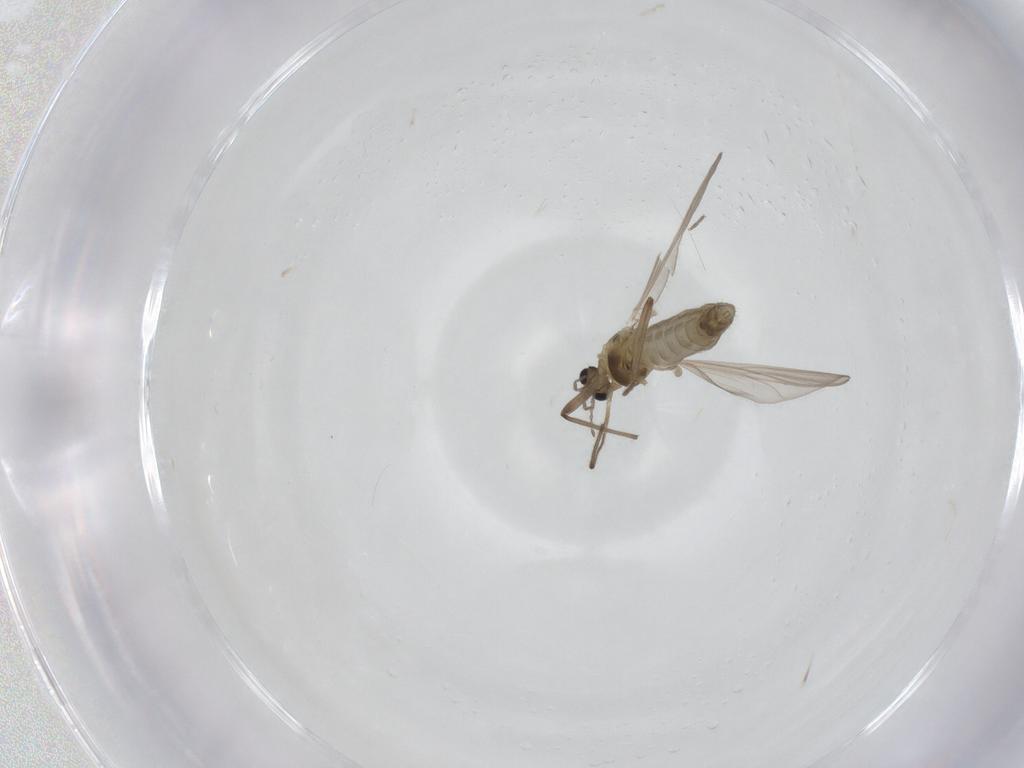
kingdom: Animalia
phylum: Arthropoda
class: Insecta
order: Diptera
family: Chironomidae
